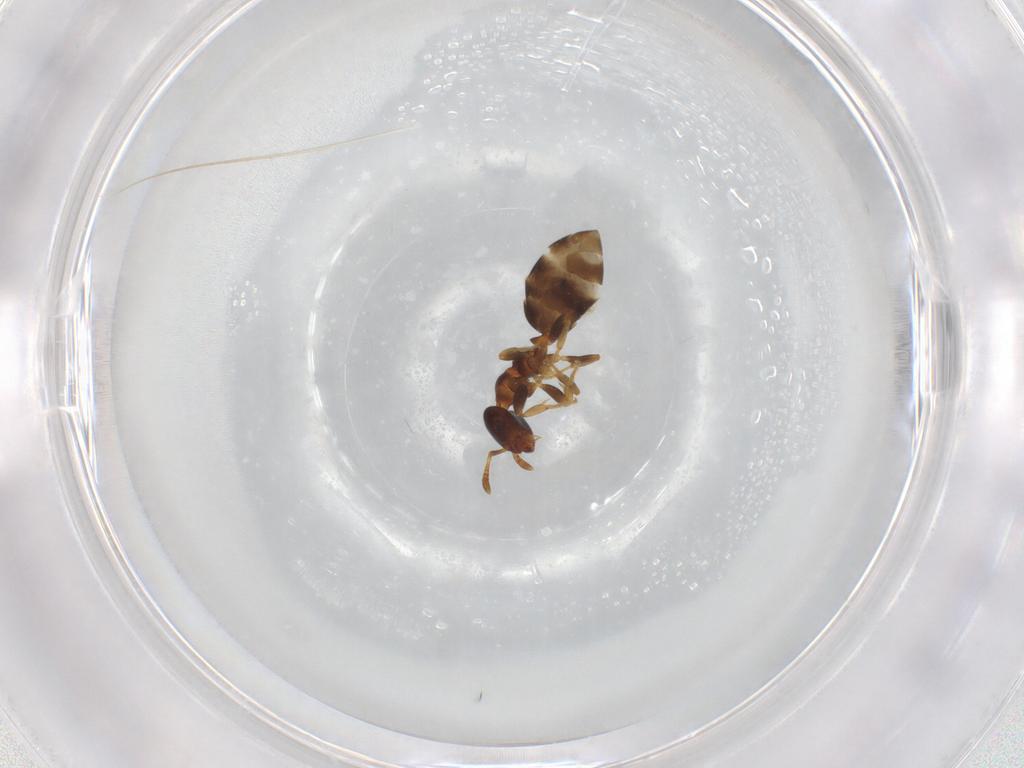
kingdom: Animalia
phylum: Arthropoda
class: Insecta
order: Hymenoptera
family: Formicidae
